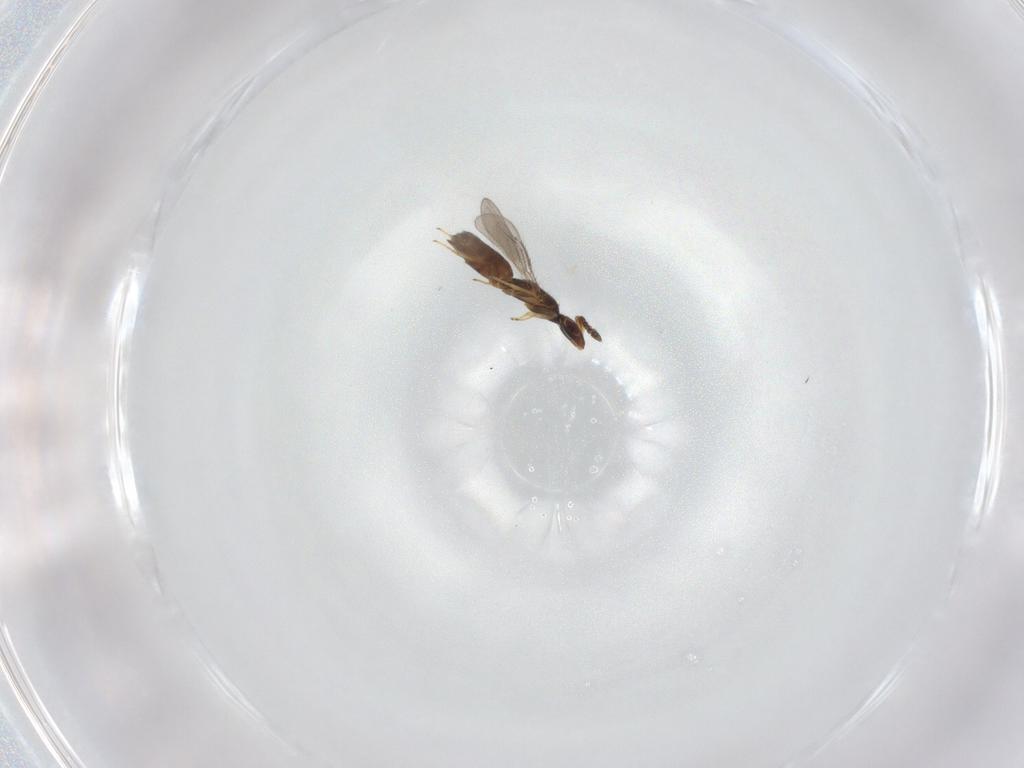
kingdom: Animalia
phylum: Arthropoda
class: Insecta
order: Hymenoptera
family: Eulophidae
